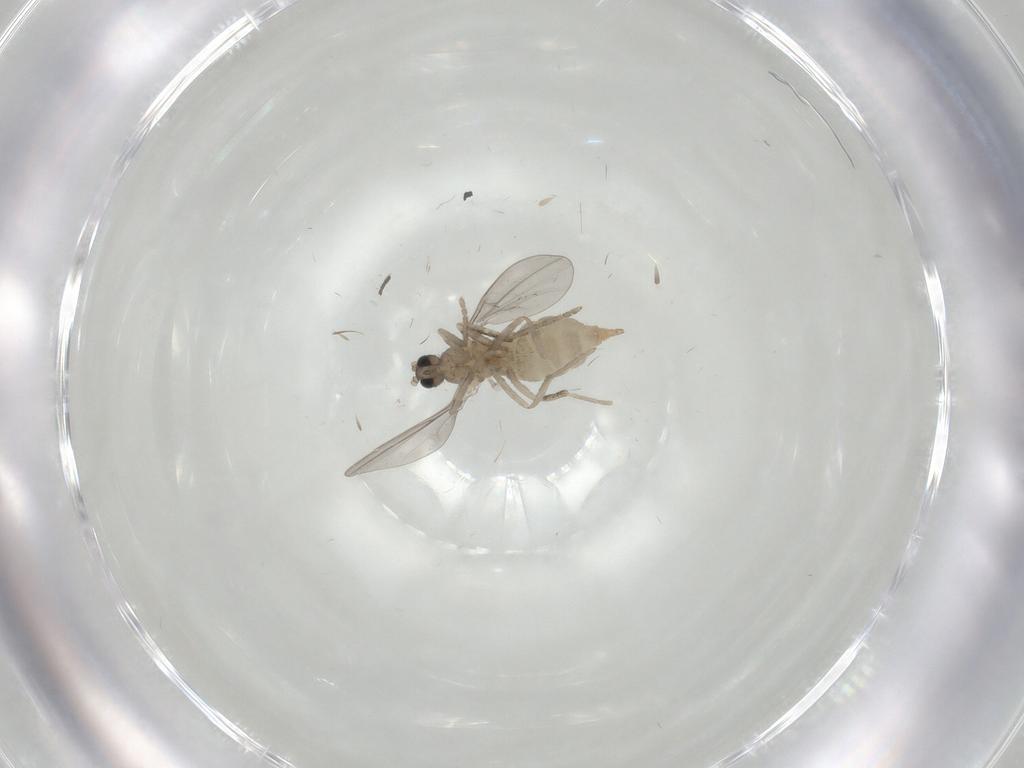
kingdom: Animalia
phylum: Arthropoda
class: Insecta
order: Diptera
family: Cecidomyiidae
